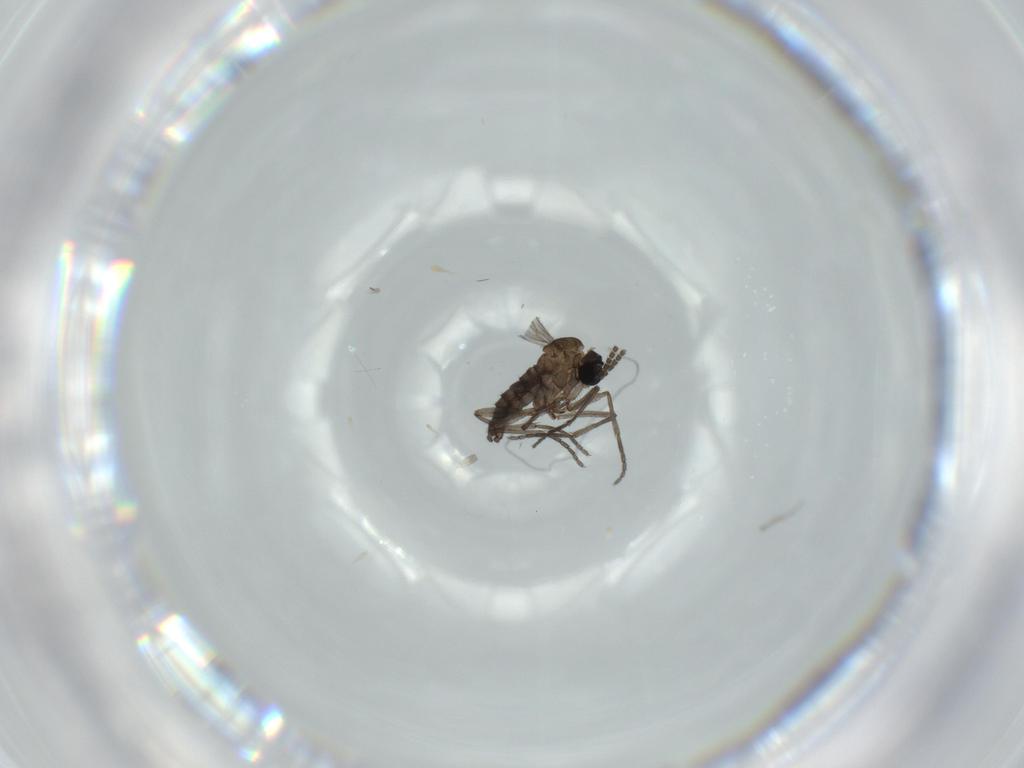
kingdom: Animalia
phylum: Arthropoda
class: Insecta
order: Diptera
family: Sciaridae
